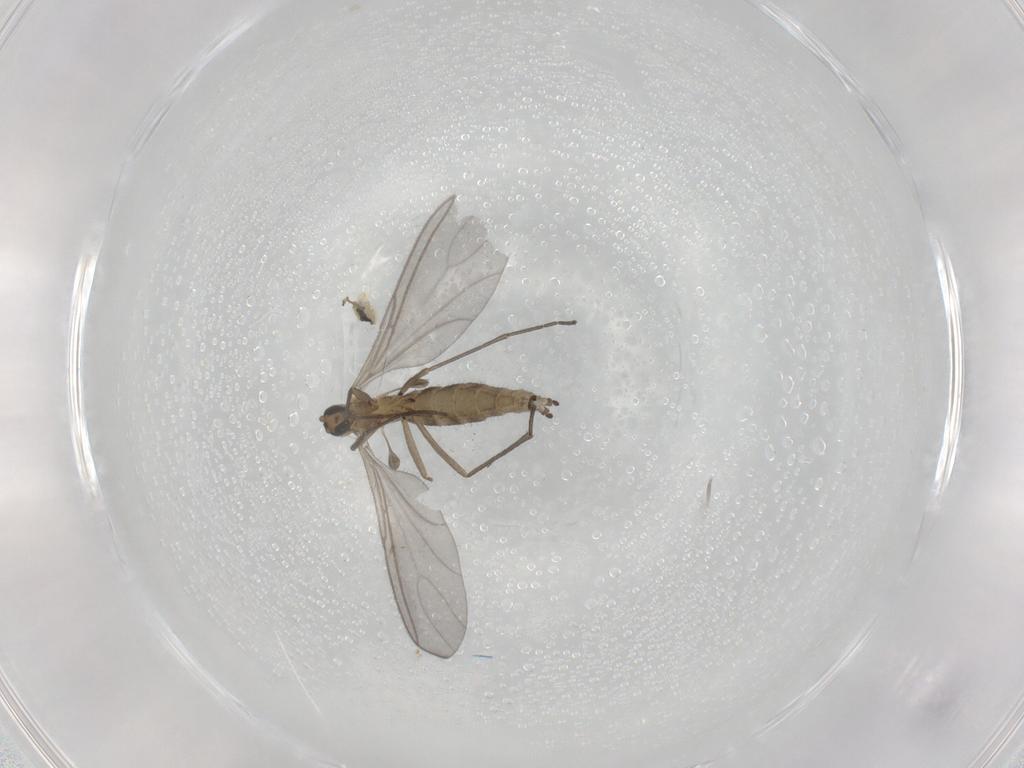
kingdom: Animalia
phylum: Arthropoda
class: Insecta
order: Diptera
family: Sciaridae
